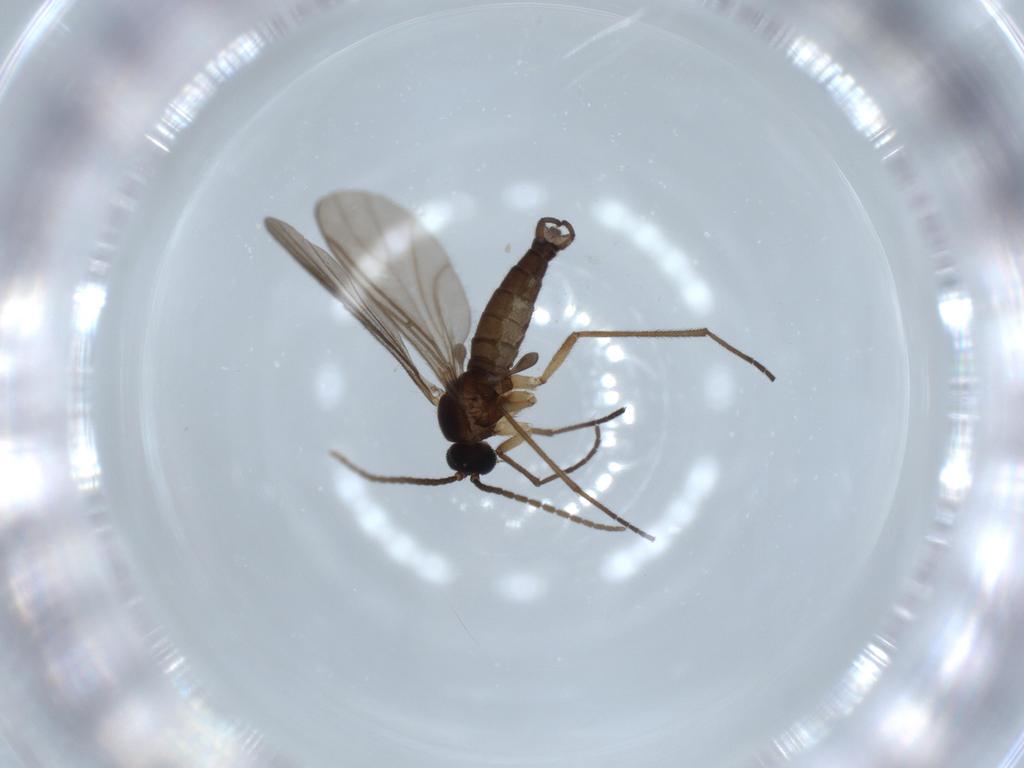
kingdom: Animalia
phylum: Arthropoda
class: Insecta
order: Diptera
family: Sciaridae
